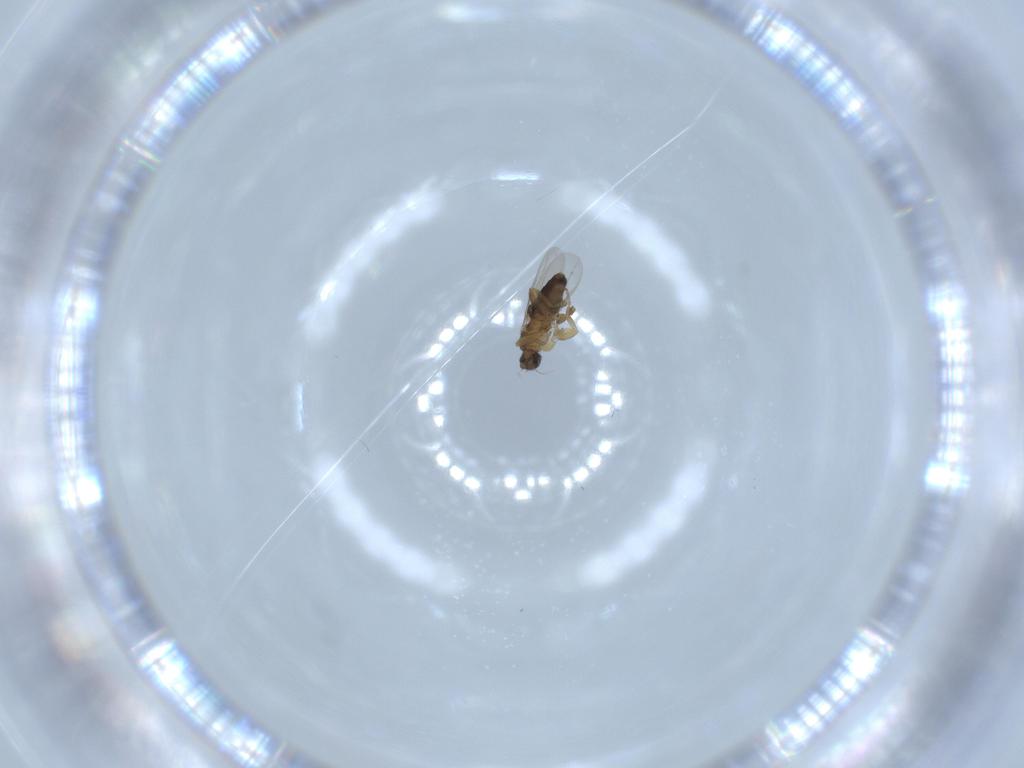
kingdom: Animalia
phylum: Arthropoda
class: Insecta
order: Diptera
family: Phoridae
